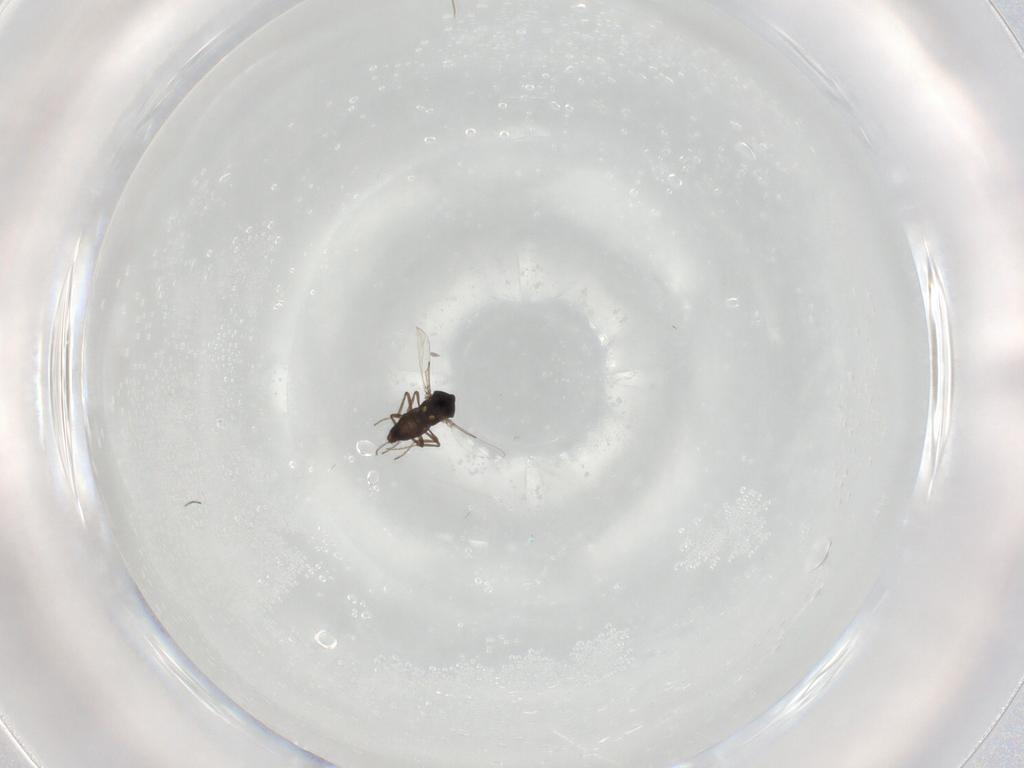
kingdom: Animalia
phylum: Arthropoda
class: Insecta
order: Diptera
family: Ceratopogonidae
